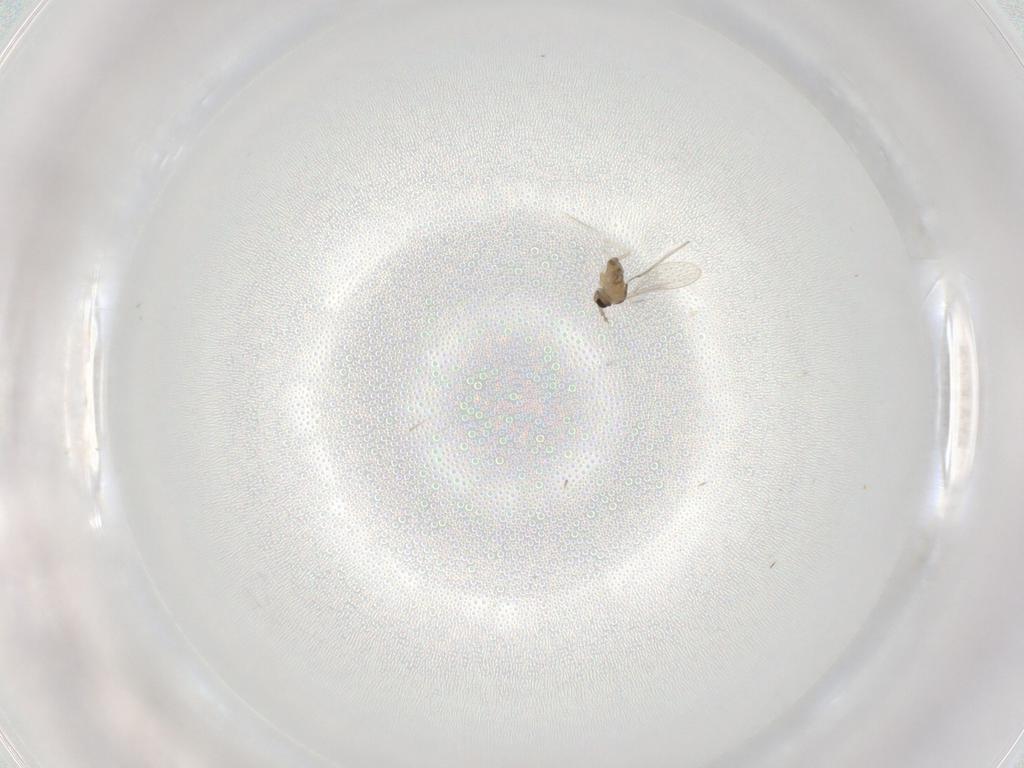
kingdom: Animalia
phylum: Arthropoda
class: Insecta
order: Diptera
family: Cecidomyiidae
